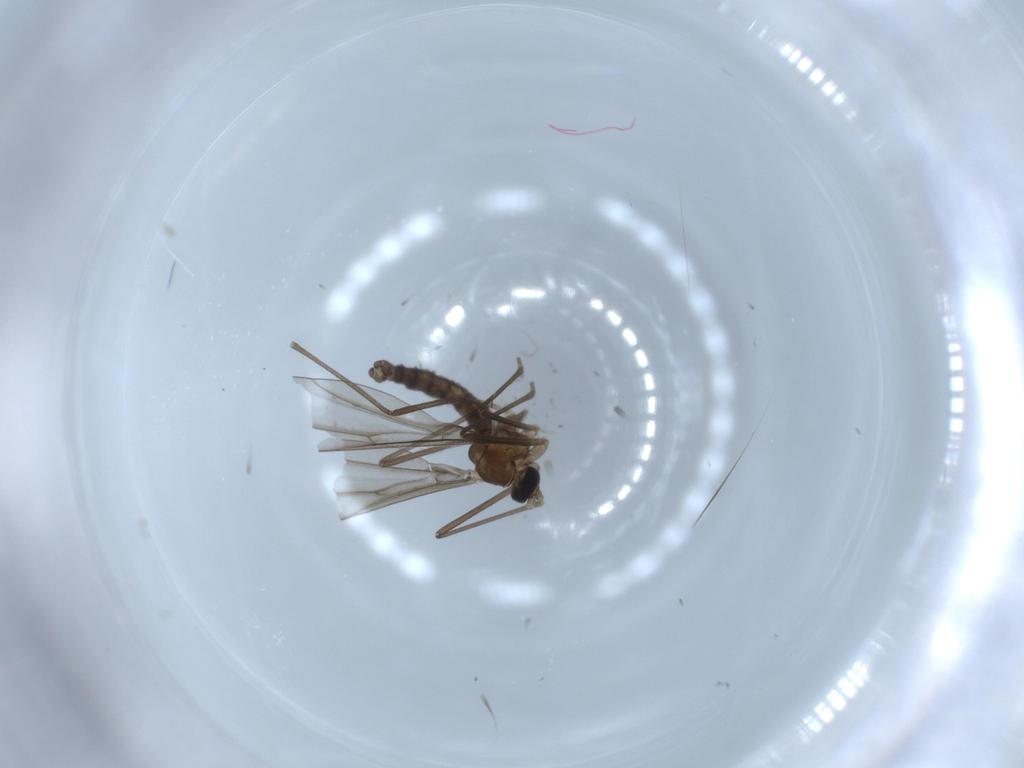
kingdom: Animalia
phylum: Arthropoda
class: Insecta
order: Diptera
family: Cecidomyiidae
